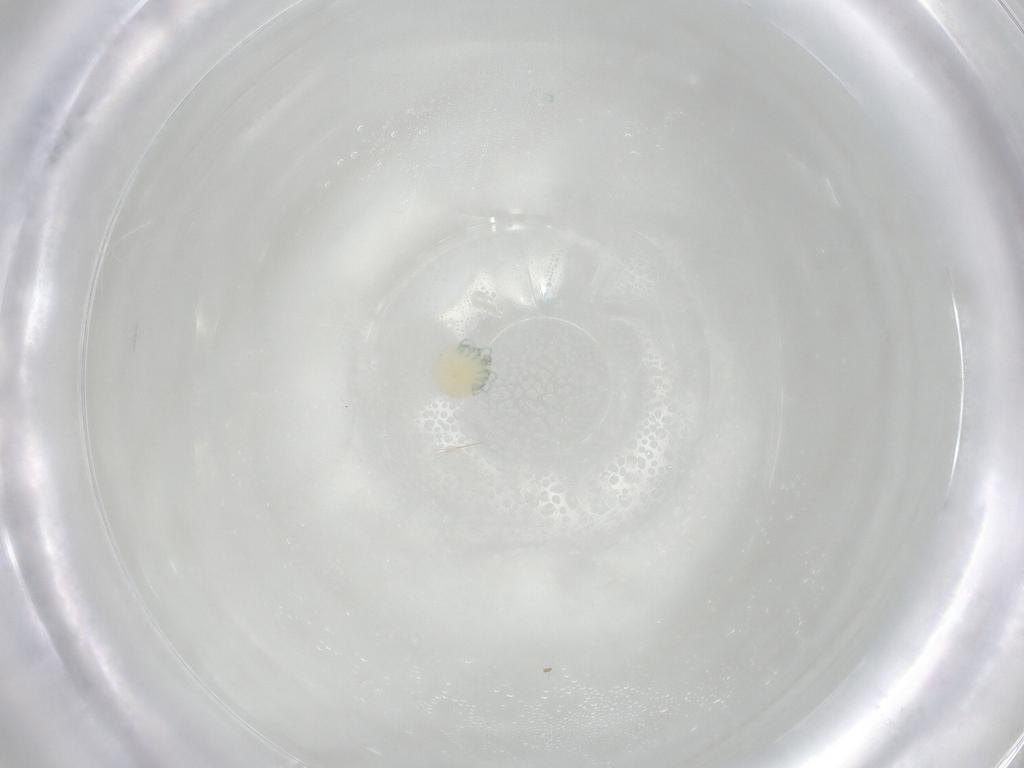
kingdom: Animalia
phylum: Arthropoda
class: Arachnida
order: Trombidiformes
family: Arrenuridae
